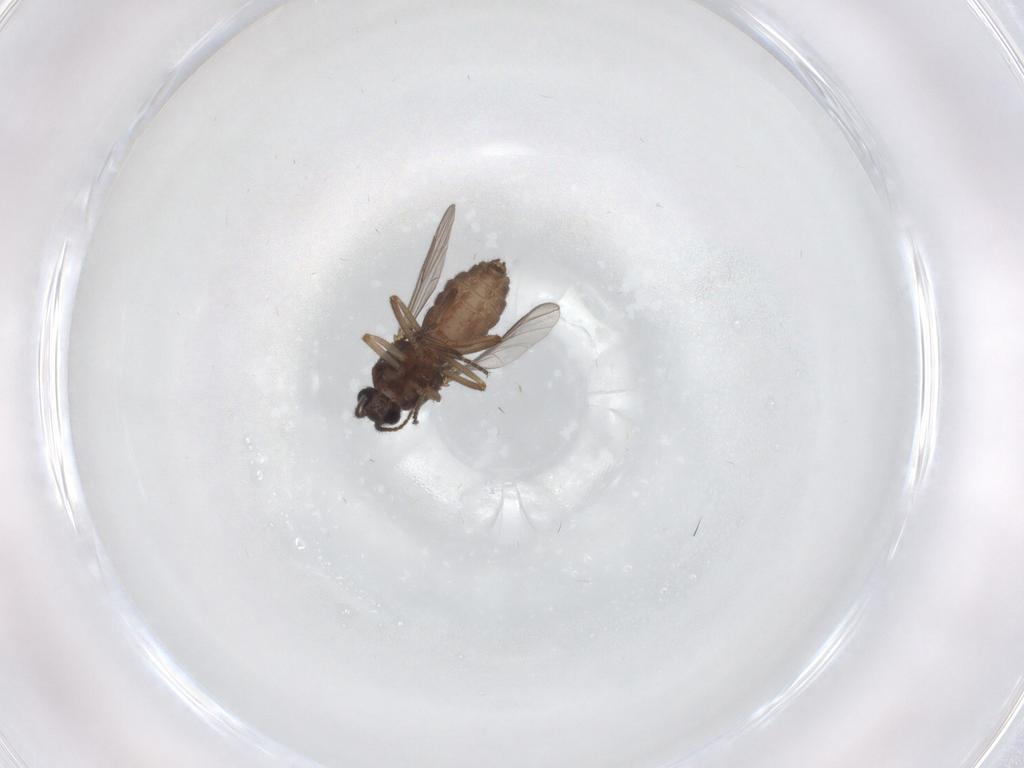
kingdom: Animalia
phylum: Arthropoda
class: Insecta
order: Diptera
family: Ceratopogonidae
